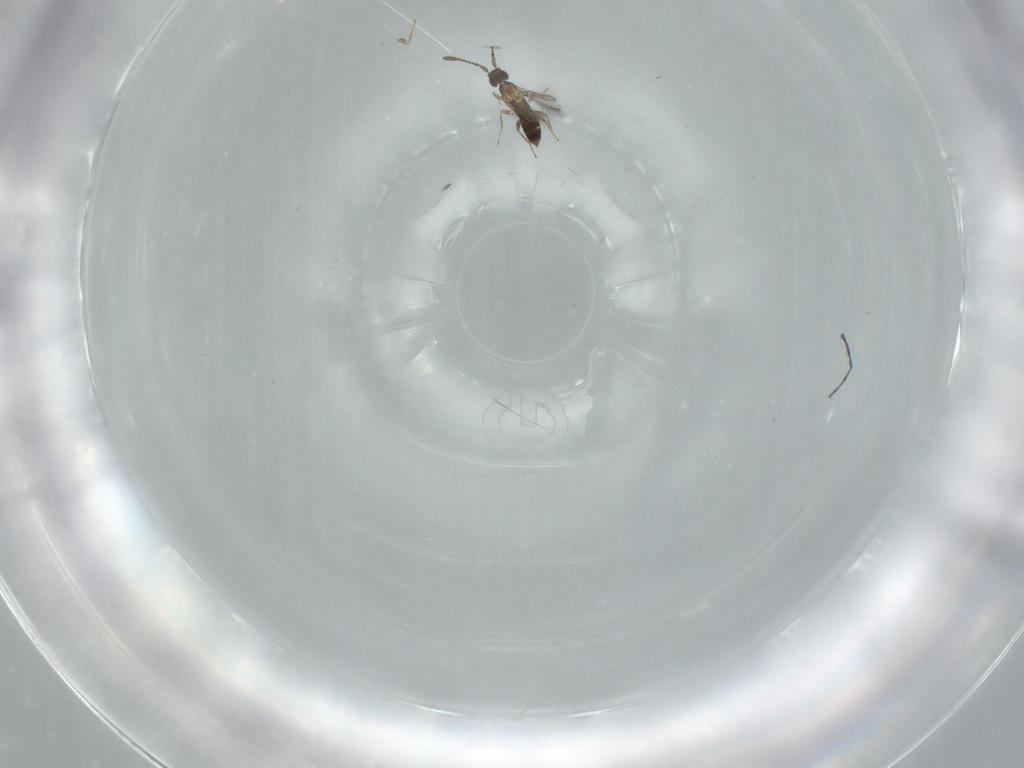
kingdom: Animalia
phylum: Arthropoda
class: Insecta
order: Hymenoptera
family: Mymaridae
